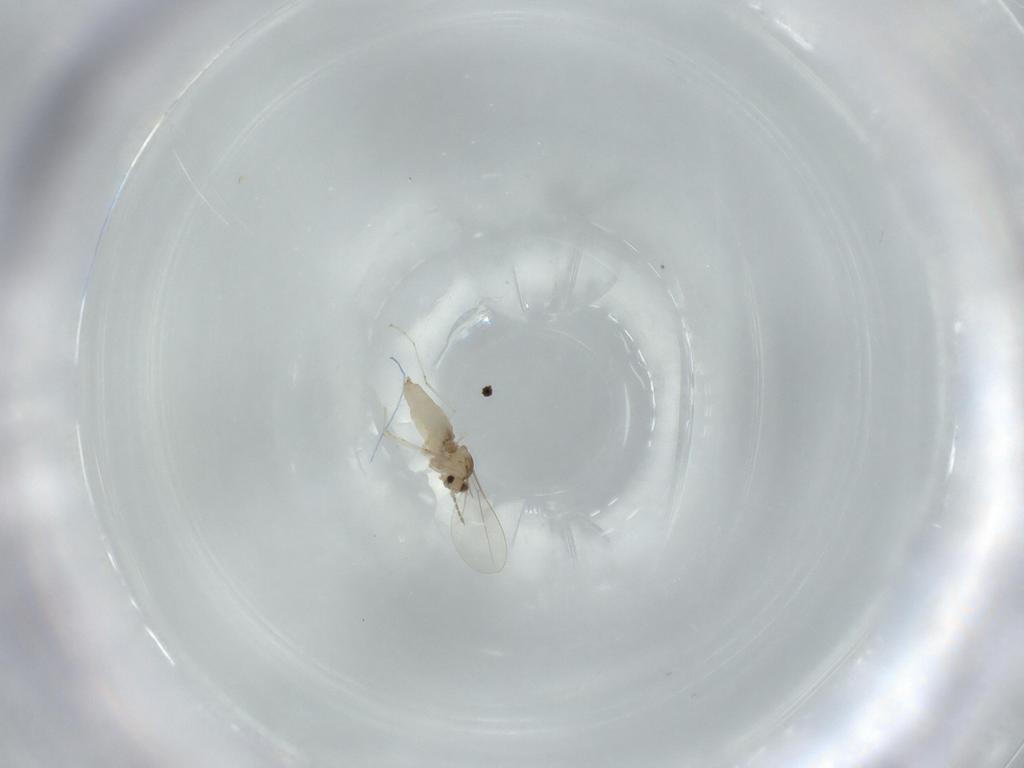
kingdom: Animalia
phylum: Arthropoda
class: Insecta
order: Diptera
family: Cecidomyiidae
